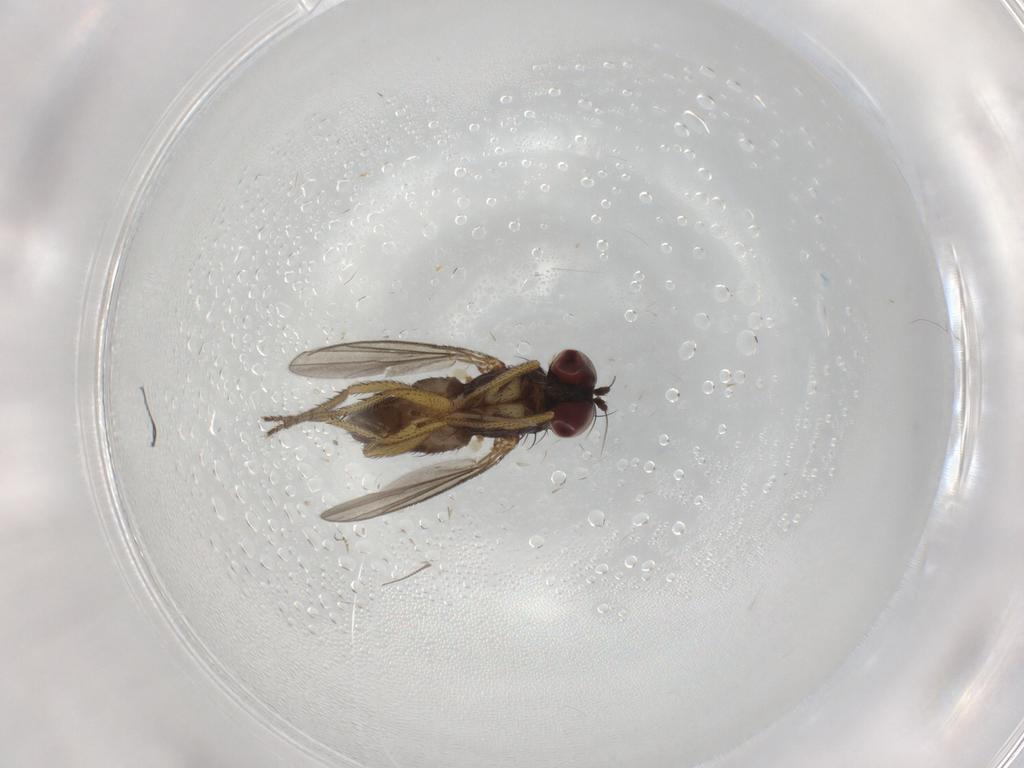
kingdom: Animalia
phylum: Arthropoda
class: Insecta
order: Diptera
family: Dolichopodidae
